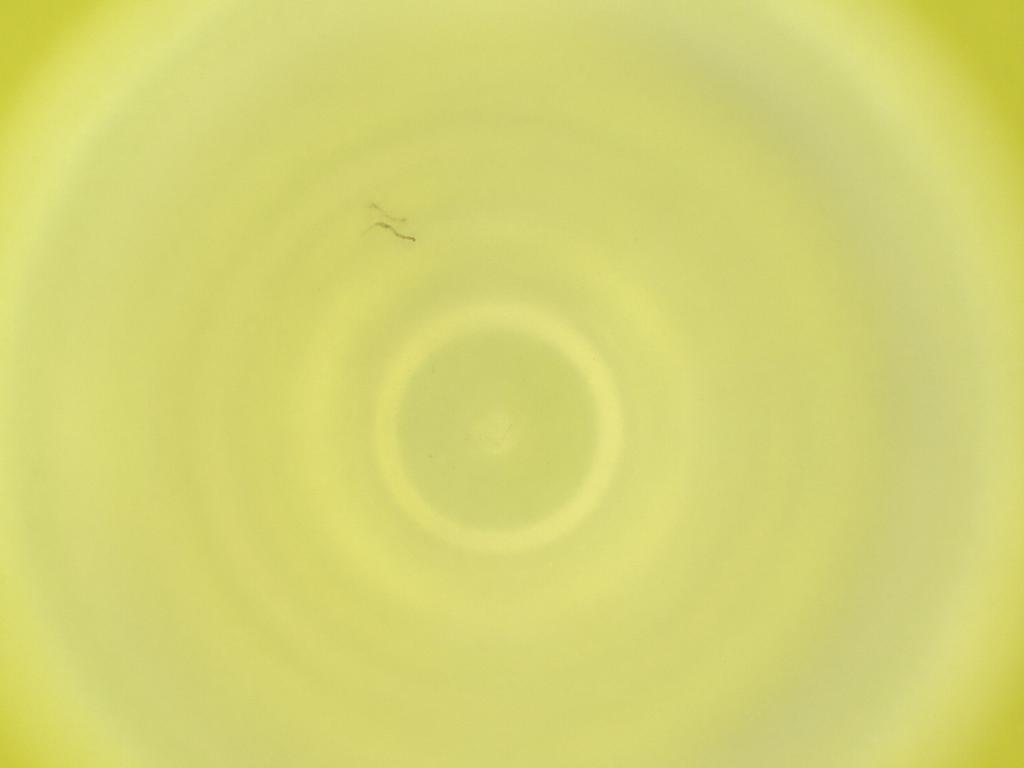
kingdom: Animalia
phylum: Arthropoda
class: Insecta
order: Diptera
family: Cecidomyiidae
